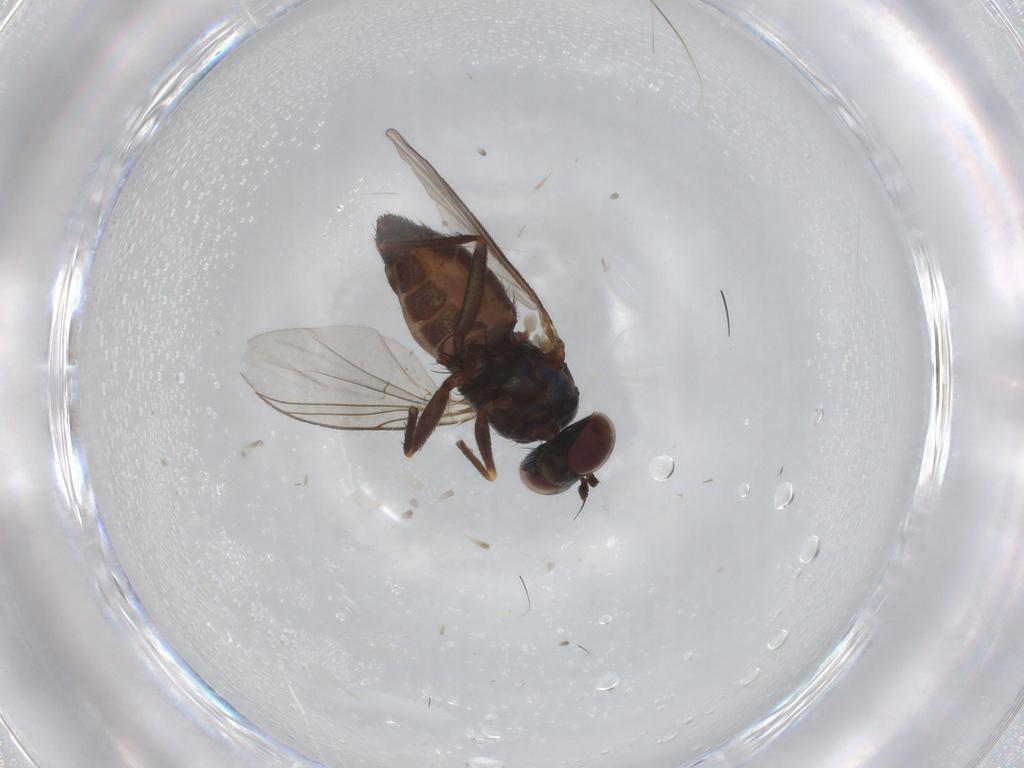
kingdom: Animalia
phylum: Arthropoda
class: Insecta
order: Diptera
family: Dolichopodidae
